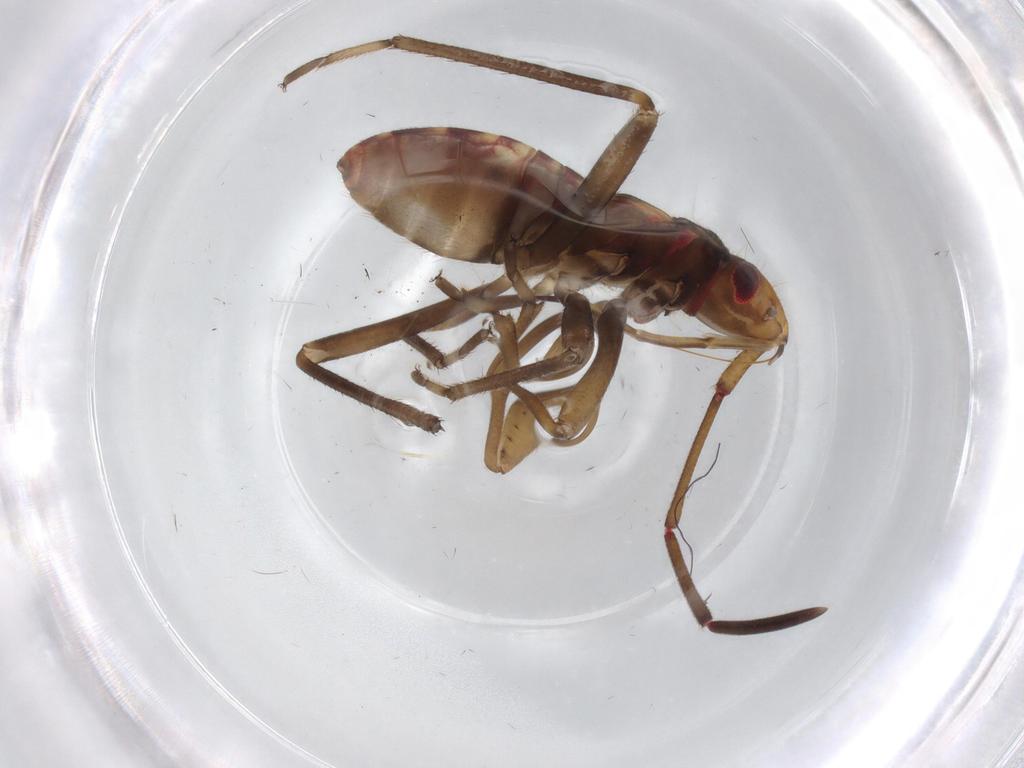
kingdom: Animalia
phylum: Arthropoda
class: Insecta
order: Hemiptera
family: Rhyparochromidae
